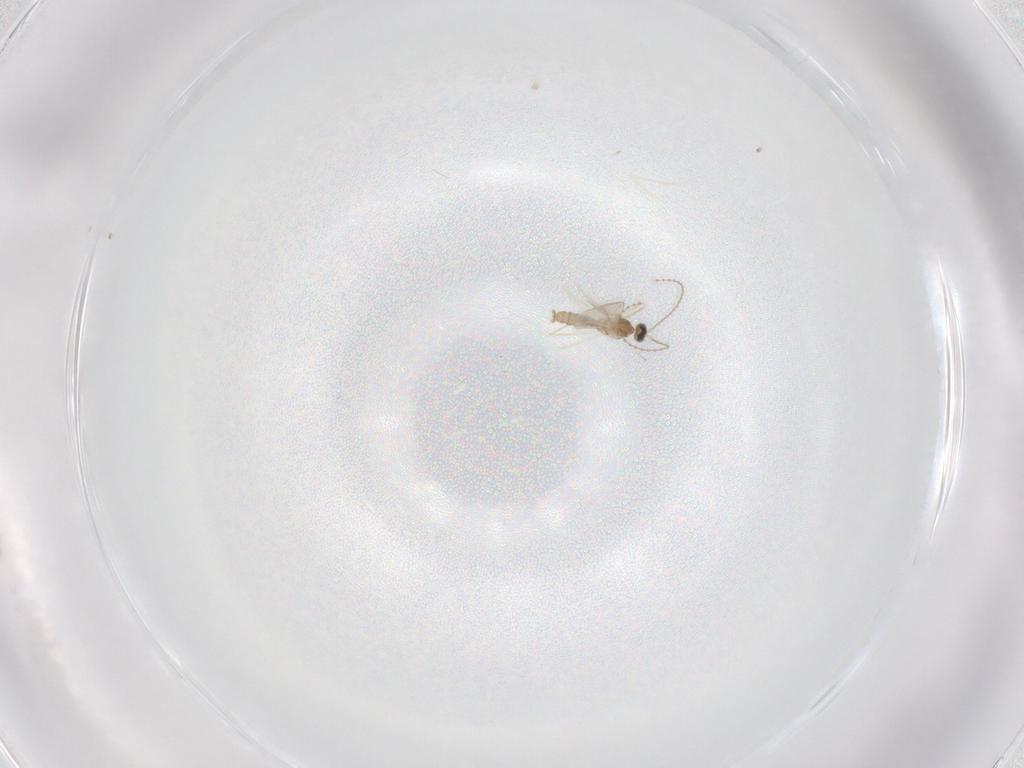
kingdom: Animalia
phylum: Arthropoda
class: Insecta
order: Diptera
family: Cecidomyiidae
